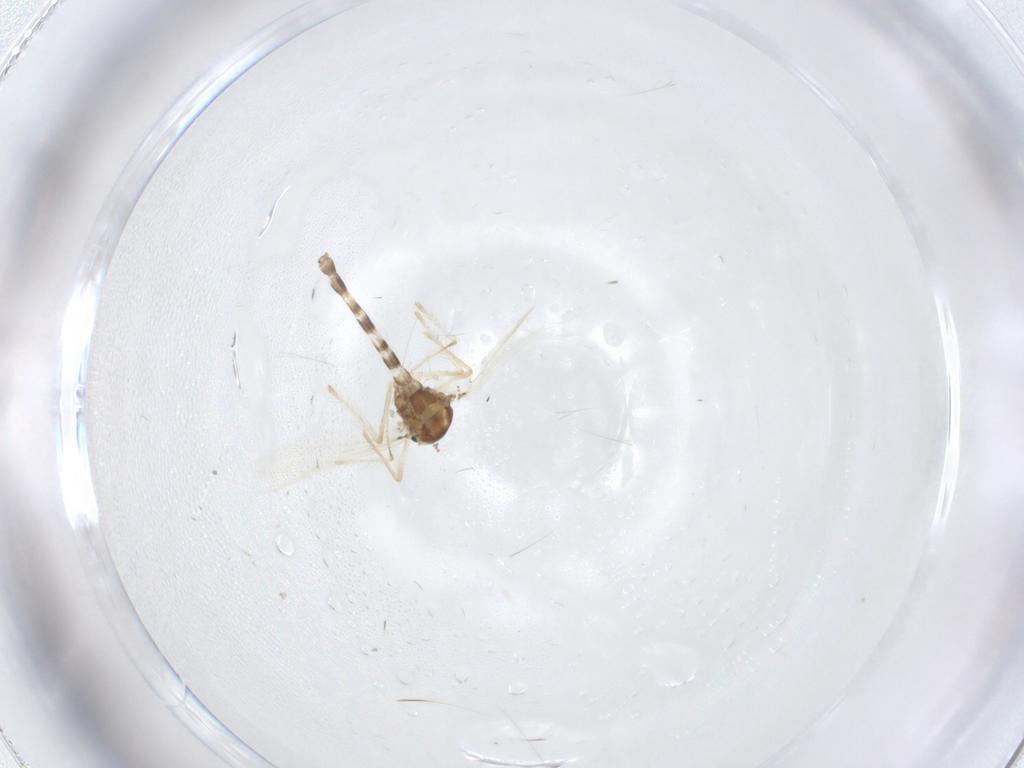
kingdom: Animalia
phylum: Arthropoda
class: Insecta
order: Diptera
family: Chironomidae
